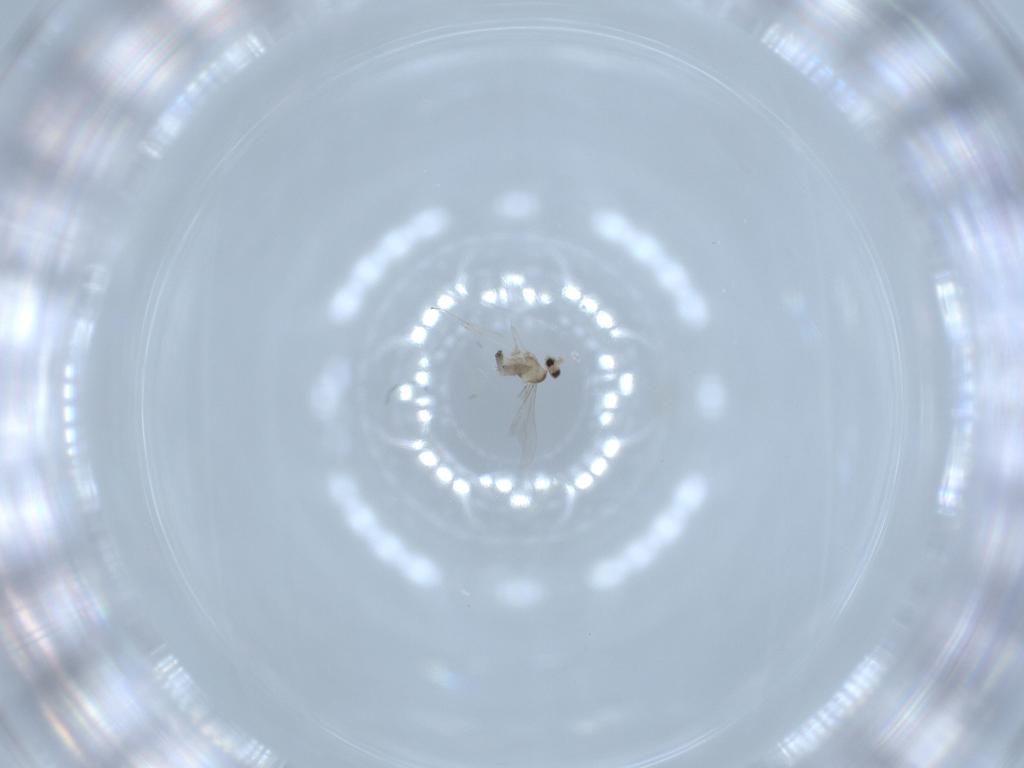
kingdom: Animalia
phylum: Arthropoda
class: Insecta
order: Diptera
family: Cecidomyiidae
